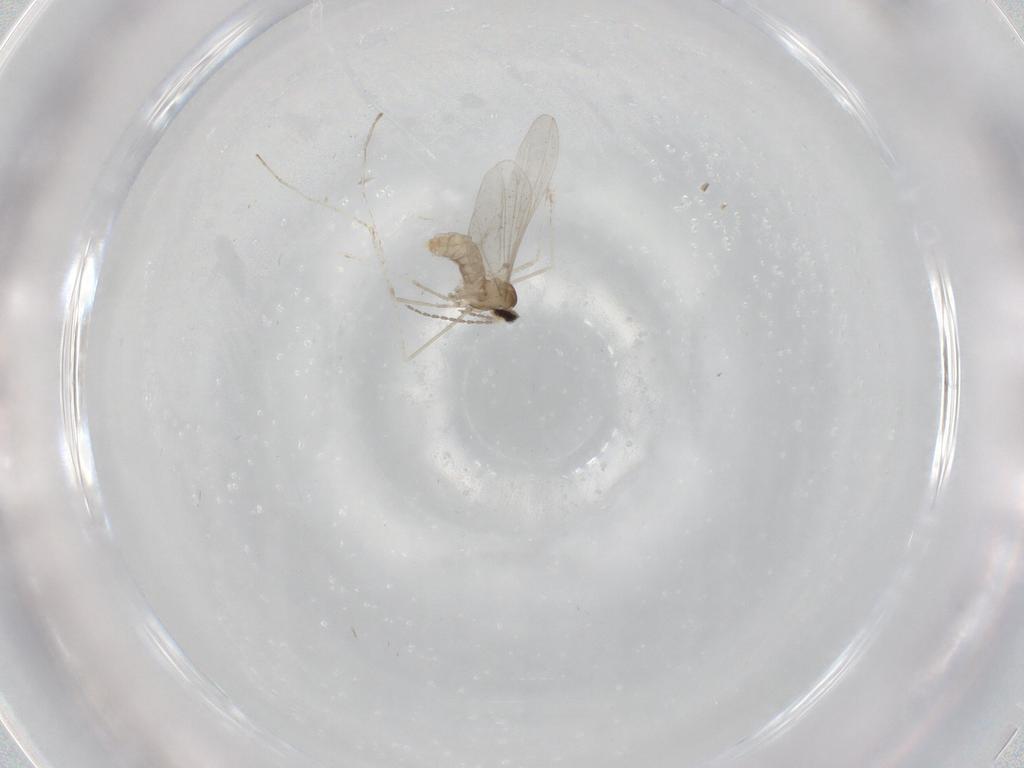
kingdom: Animalia
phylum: Arthropoda
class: Insecta
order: Diptera
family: Cecidomyiidae
